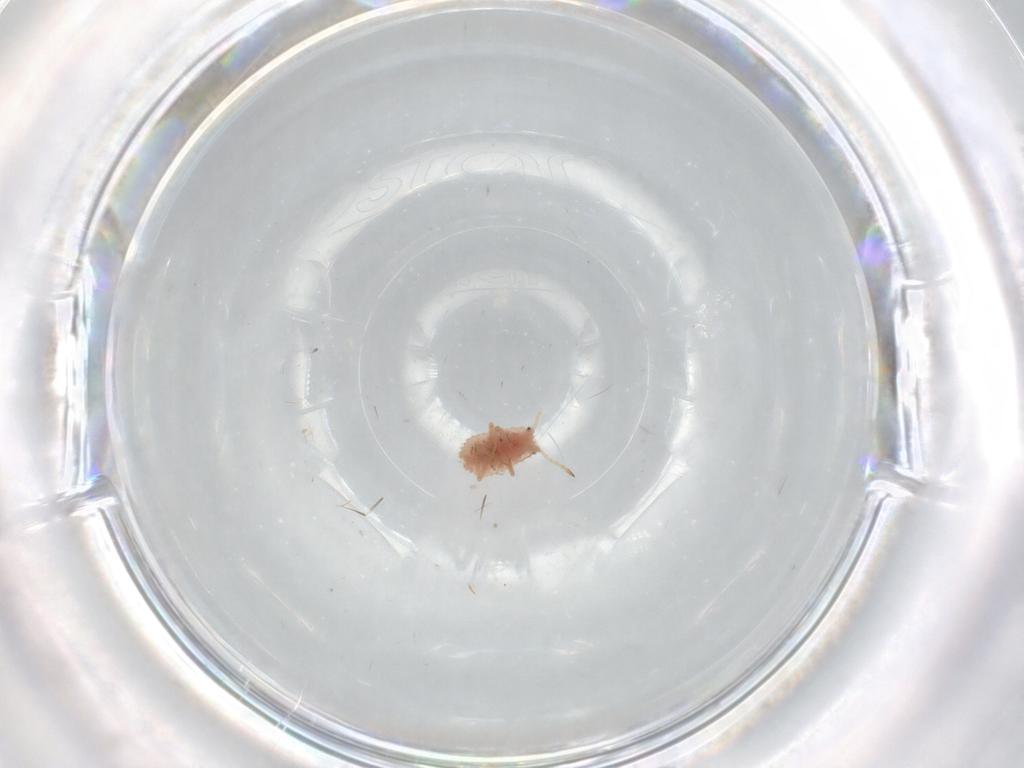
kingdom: Animalia
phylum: Arthropoda
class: Insecta
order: Hemiptera
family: Coccoidea_incertae_sedis
